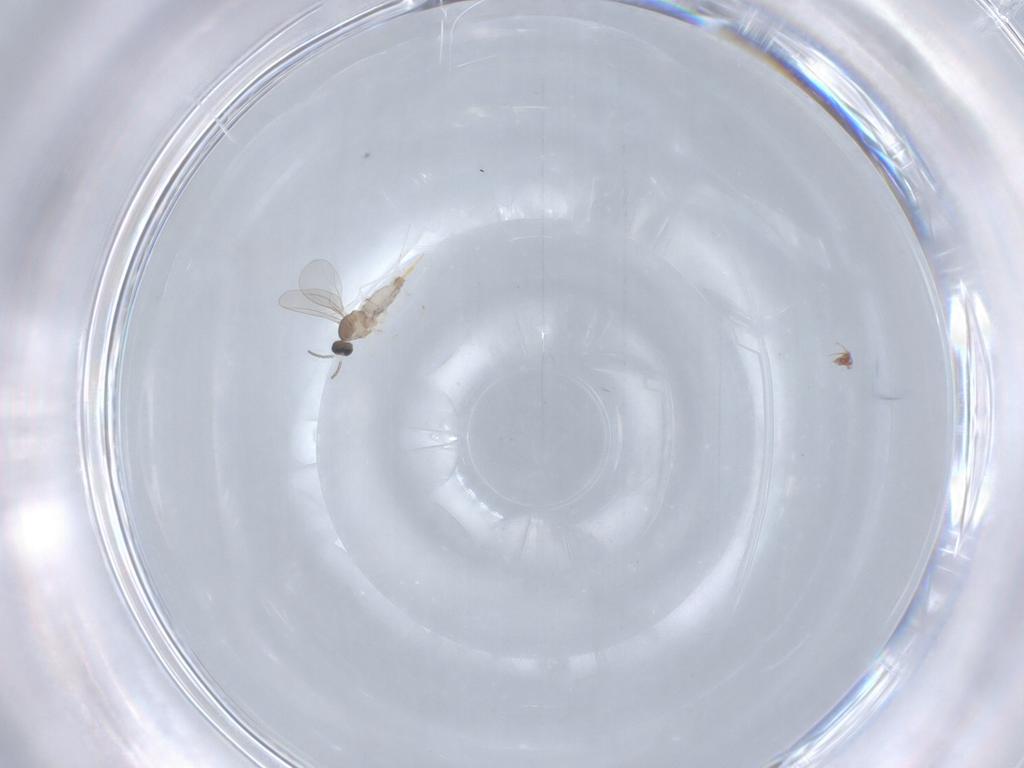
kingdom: Animalia
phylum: Arthropoda
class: Insecta
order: Diptera
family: Cecidomyiidae
